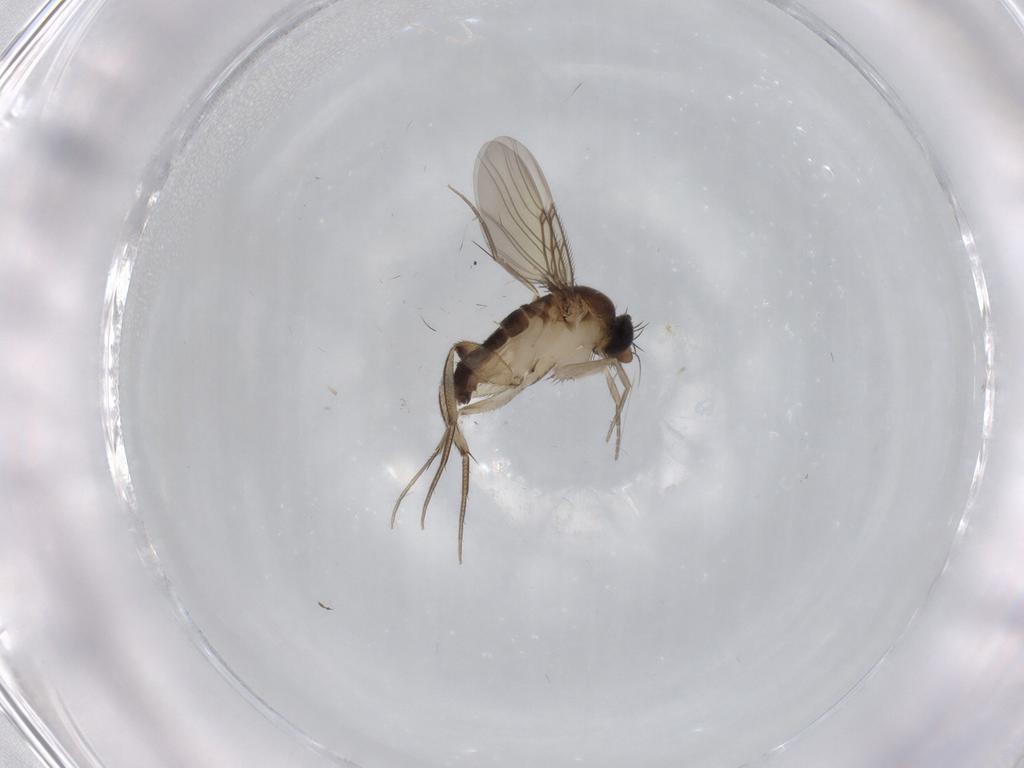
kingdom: Animalia
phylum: Arthropoda
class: Insecta
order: Diptera
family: Phoridae
